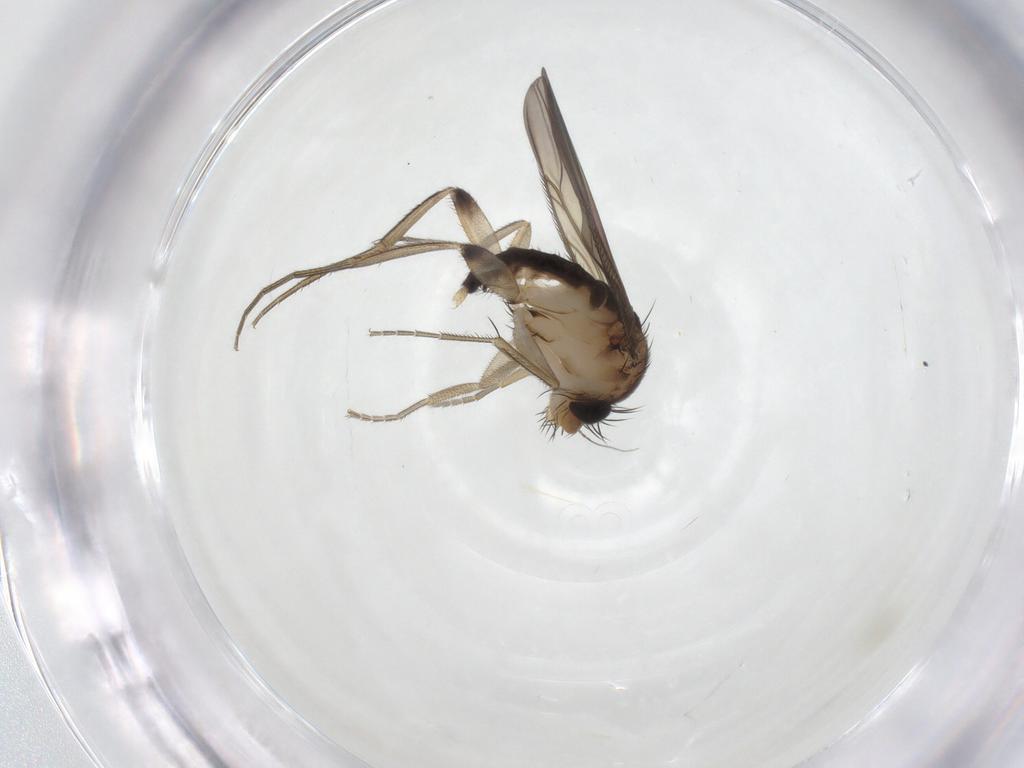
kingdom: Animalia
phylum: Arthropoda
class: Insecta
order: Diptera
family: Phoridae
